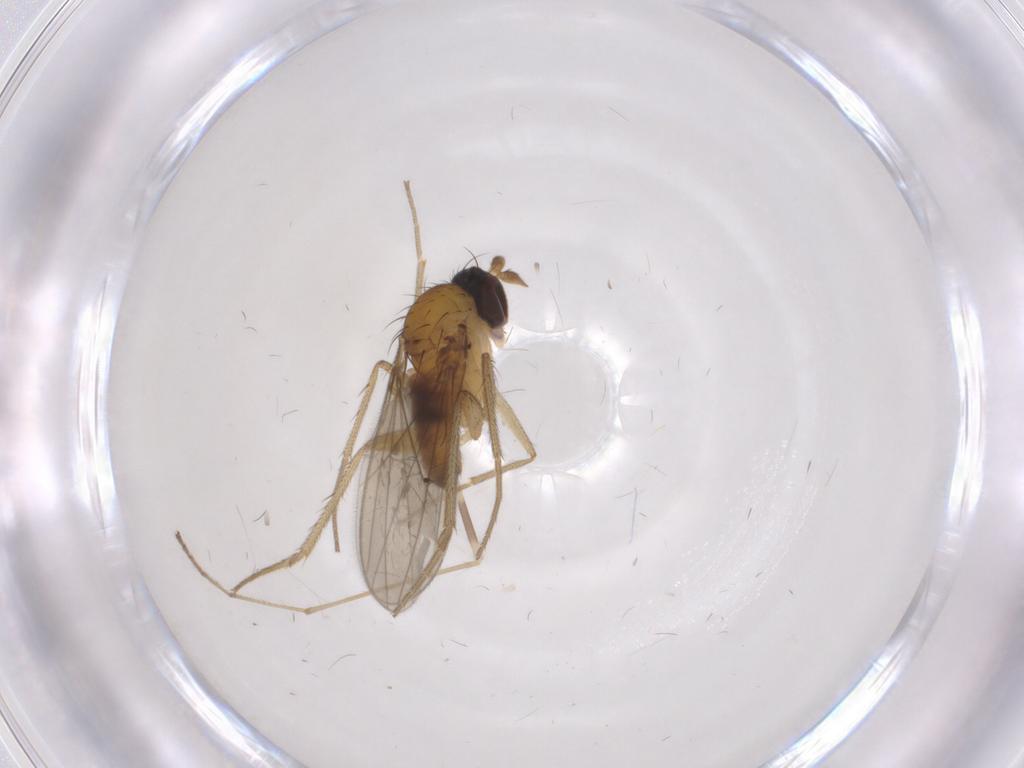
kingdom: Animalia
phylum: Arthropoda
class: Insecta
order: Diptera
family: Dolichopodidae
